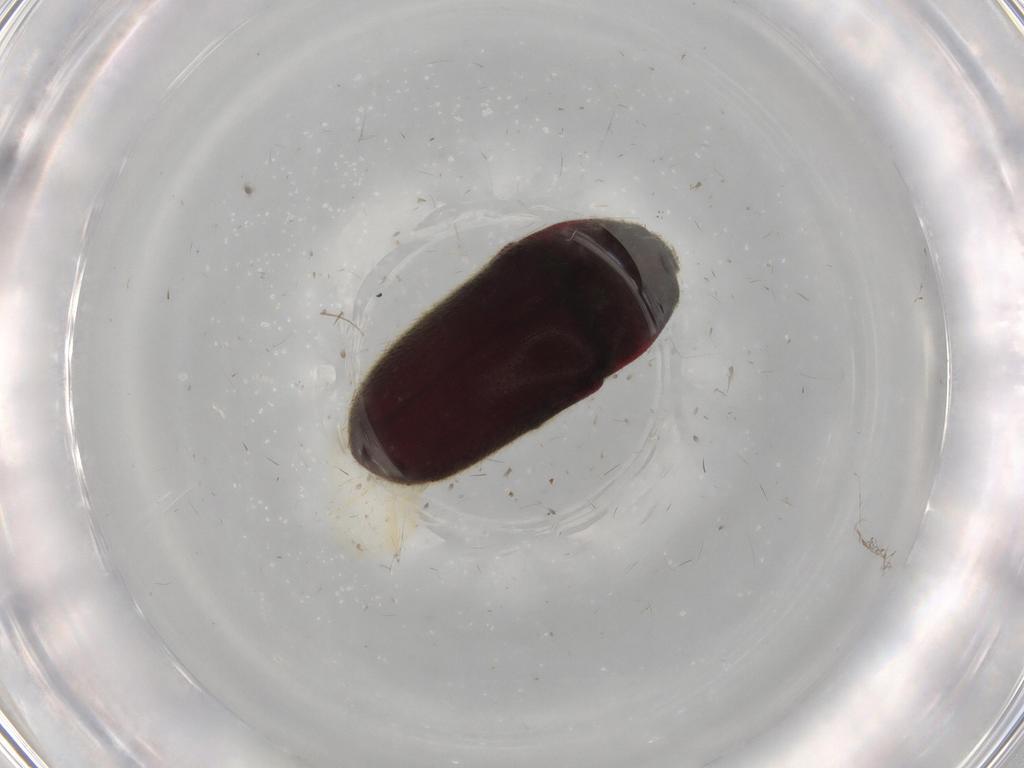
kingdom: Animalia
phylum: Arthropoda
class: Insecta
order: Coleoptera
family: Throscidae
